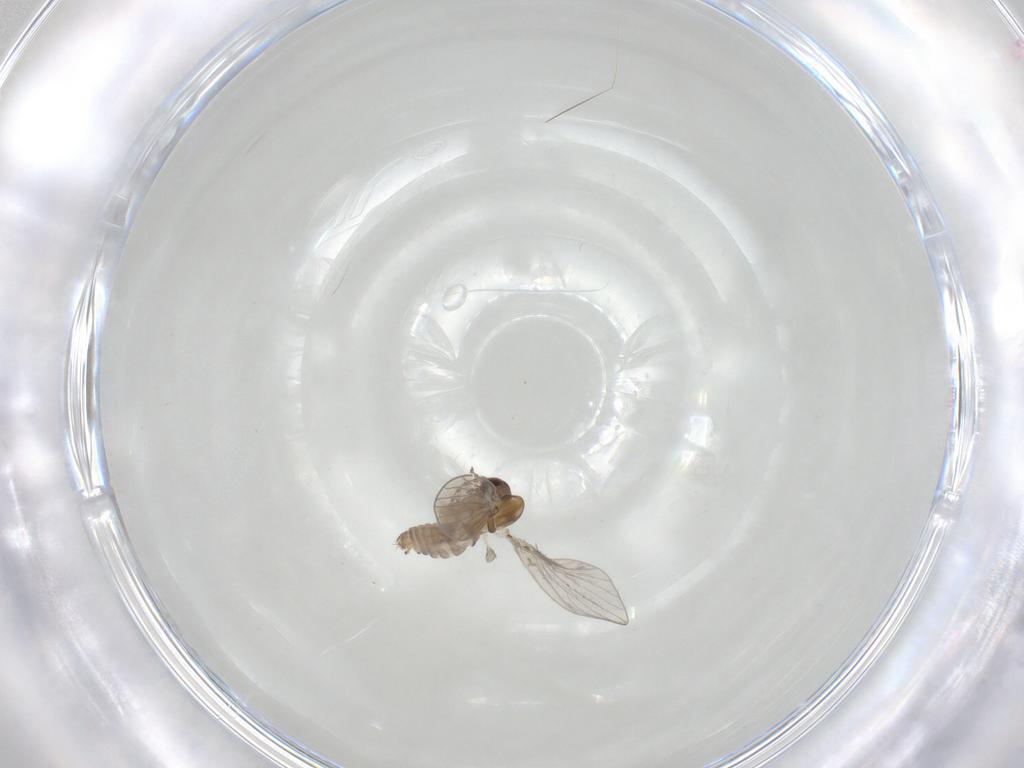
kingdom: Animalia
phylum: Arthropoda
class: Insecta
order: Diptera
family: Psychodidae
